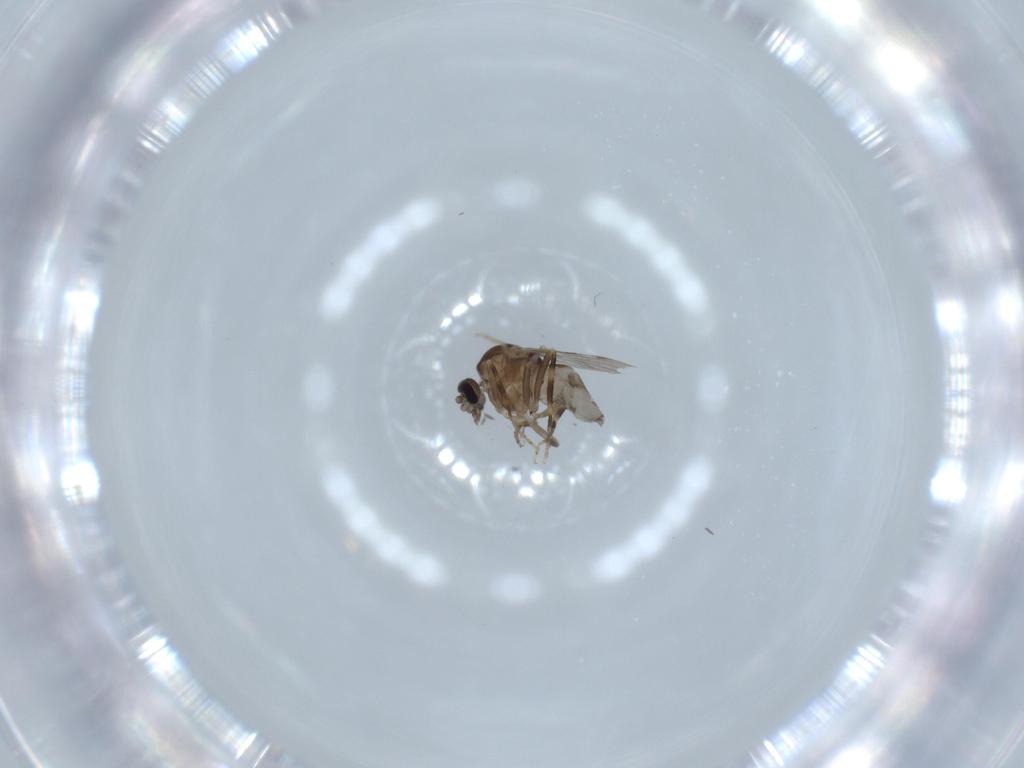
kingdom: Animalia
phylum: Arthropoda
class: Insecta
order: Diptera
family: Ceratopogonidae
